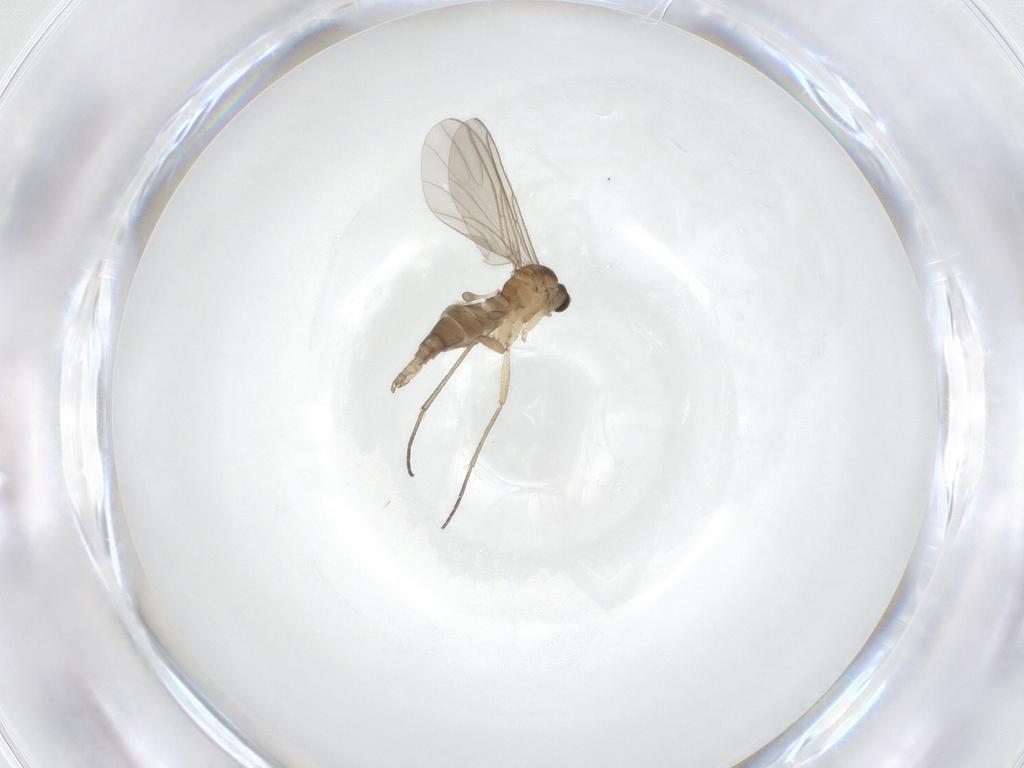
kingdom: Animalia
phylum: Arthropoda
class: Insecta
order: Diptera
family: Sciaridae
